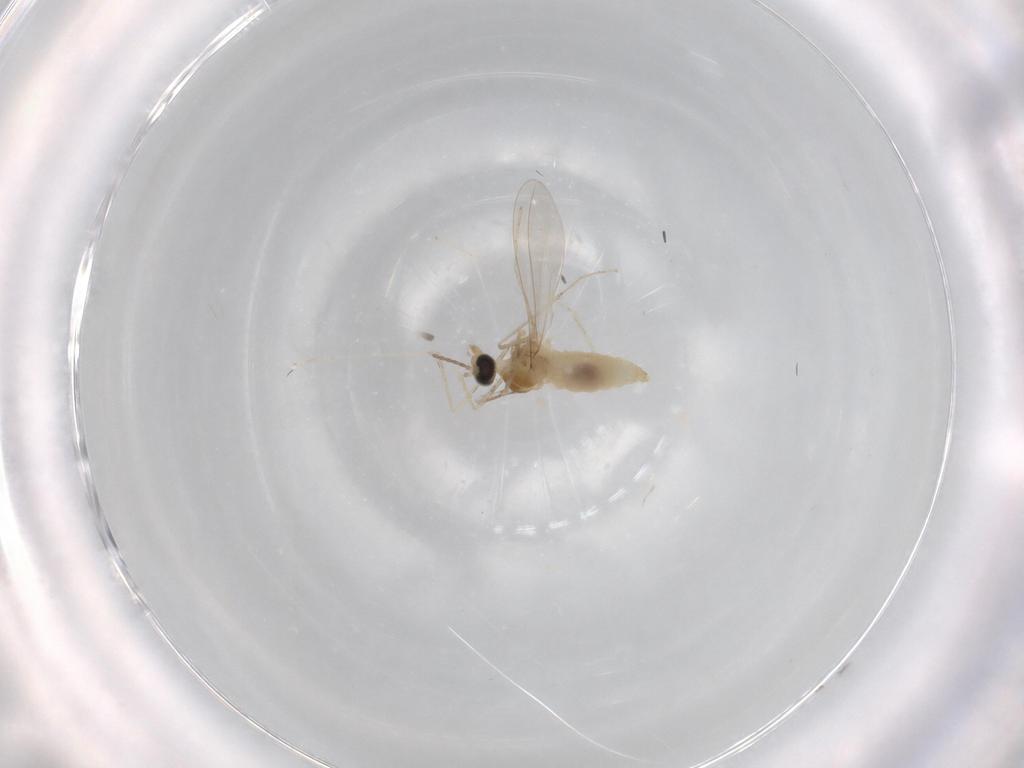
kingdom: Animalia
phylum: Arthropoda
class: Insecta
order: Diptera
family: Cecidomyiidae
